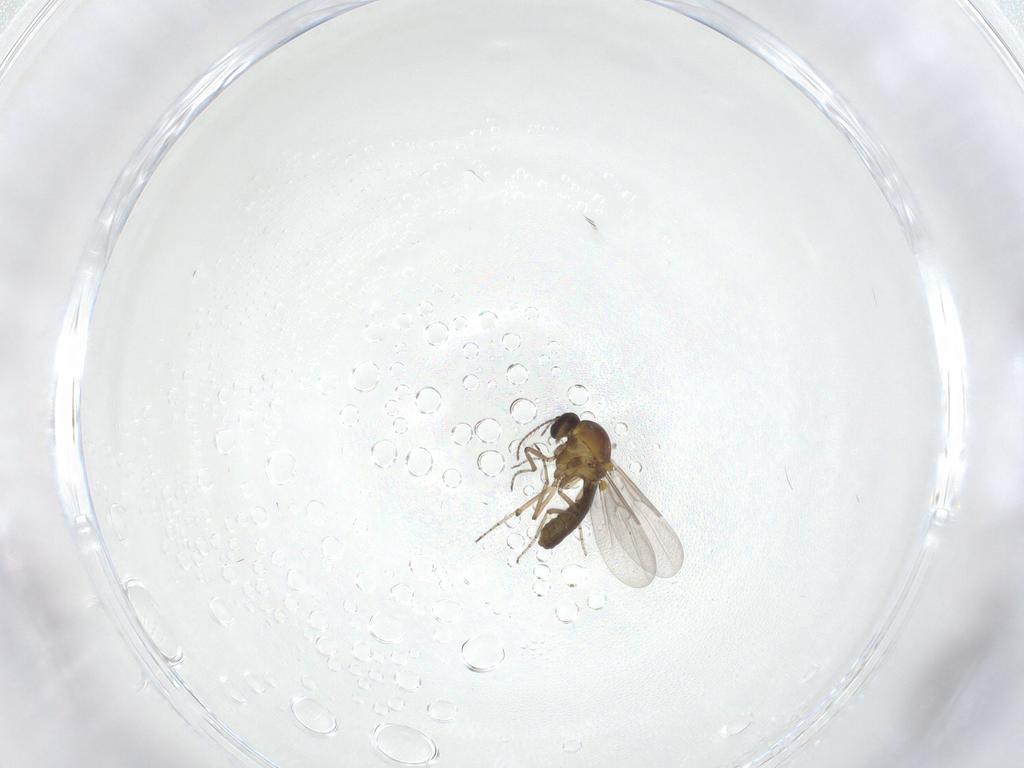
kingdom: Animalia
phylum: Arthropoda
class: Insecta
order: Diptera
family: Ceratopogonidae
